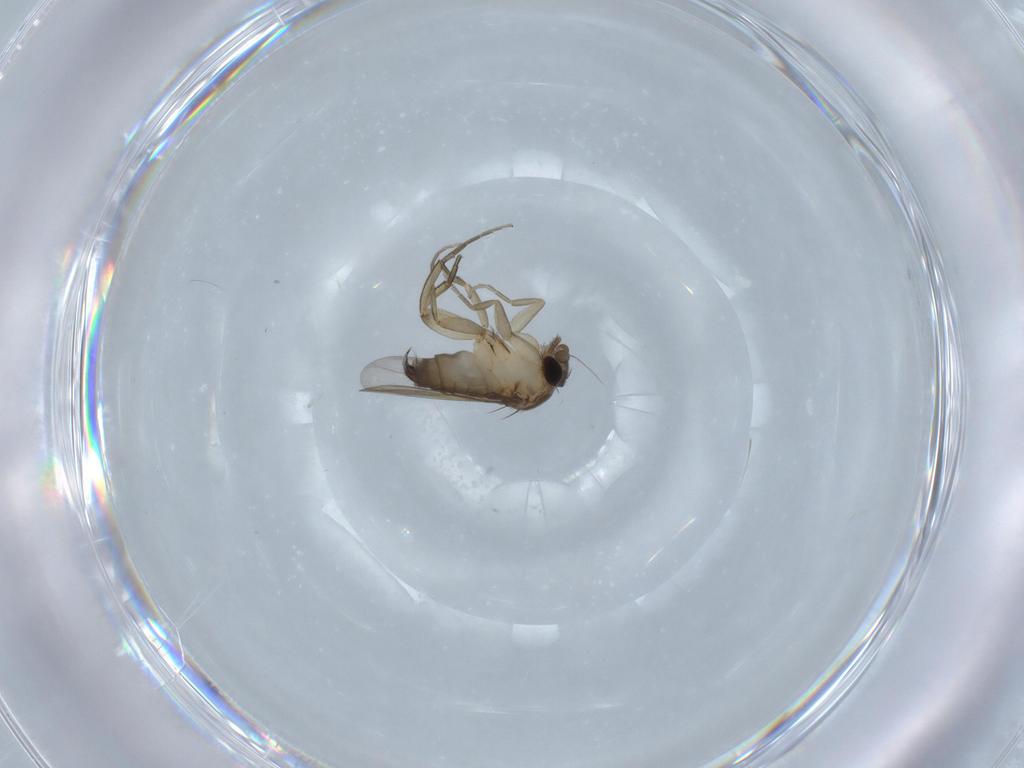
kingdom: Animalia
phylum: Arthropoda
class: Insecta
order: Diptera
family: Phoridae
